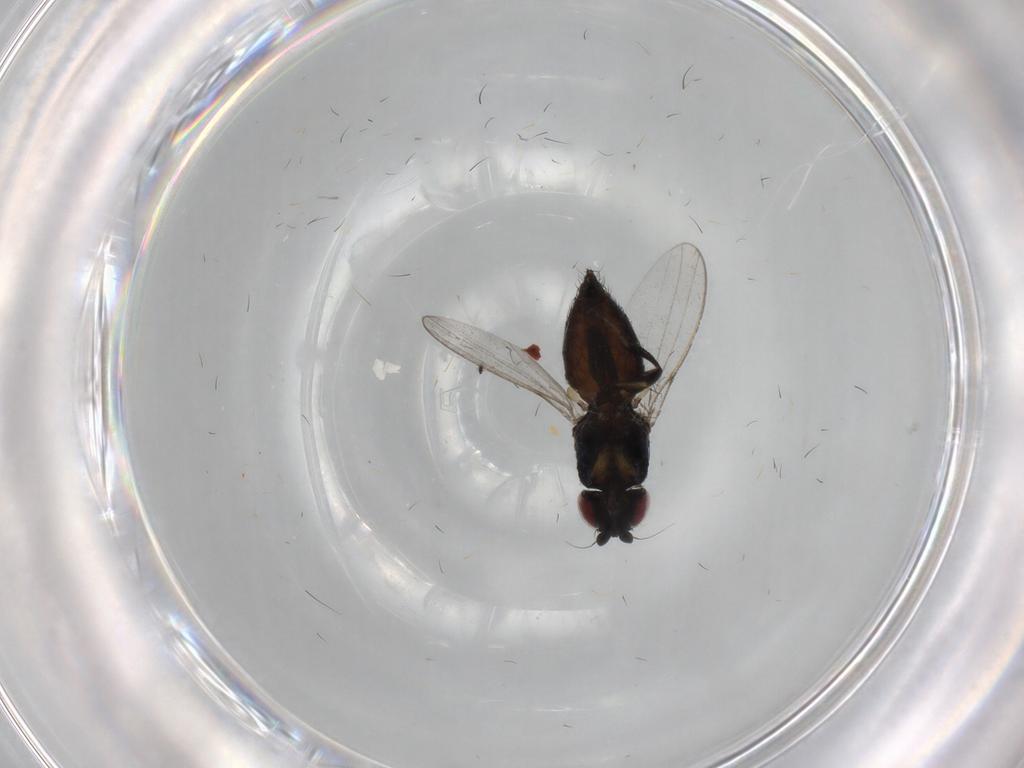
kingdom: Animalia
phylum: Arthropoda
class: Insecta
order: Diptera
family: Milichiidae
